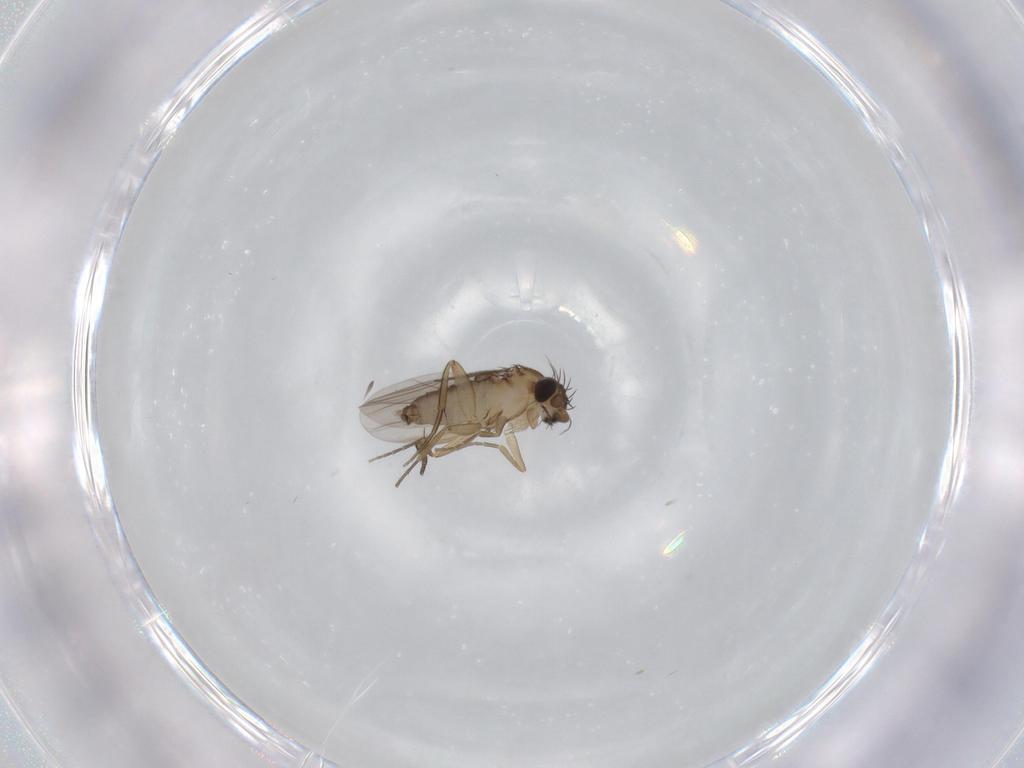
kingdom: Animalia
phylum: Arthropoda
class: Insecta
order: Diptera
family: Phoridae
